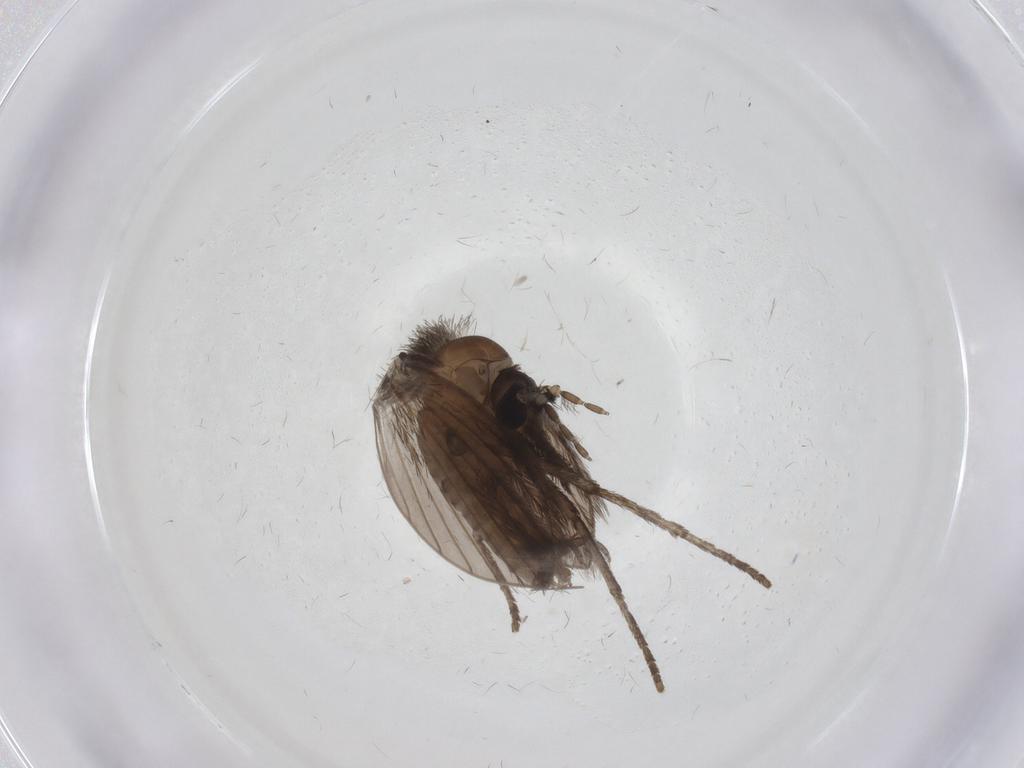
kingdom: Animalia
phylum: Arthropoda
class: Insecta
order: Diptera
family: Psychodidae
